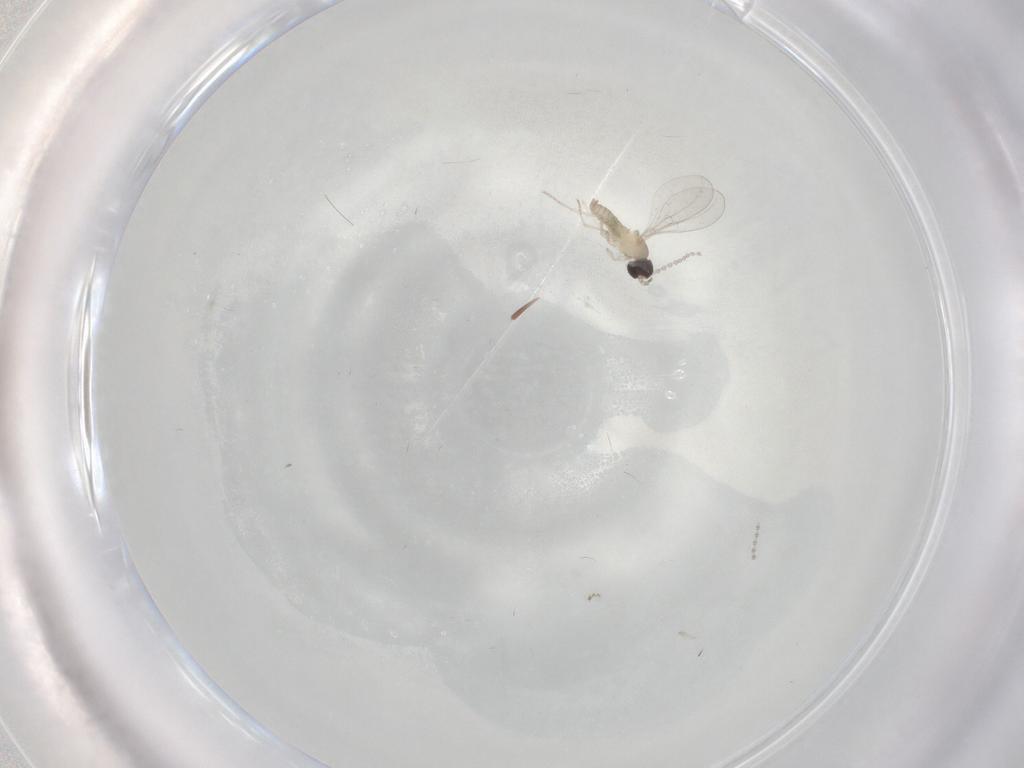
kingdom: Animalia
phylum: Arthropoda
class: Insecta
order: Diptera
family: Cecidomyiidae
